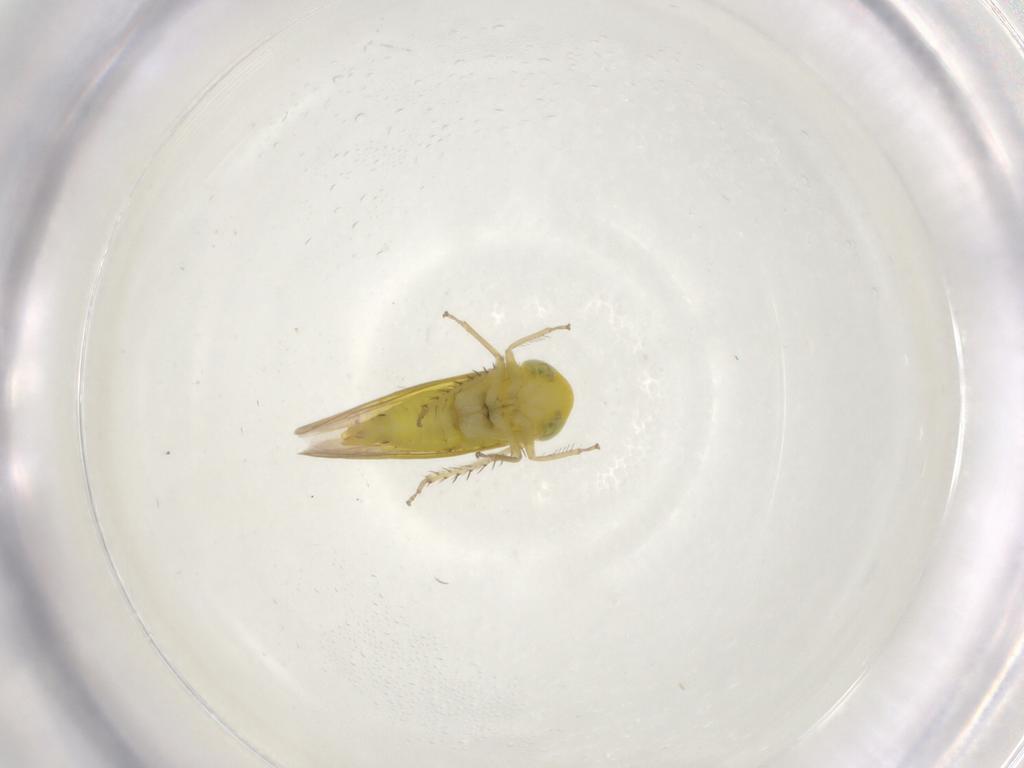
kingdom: Animalia
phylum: Arthropoda
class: Insecta
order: Hemiptera
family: Cicadellidae
